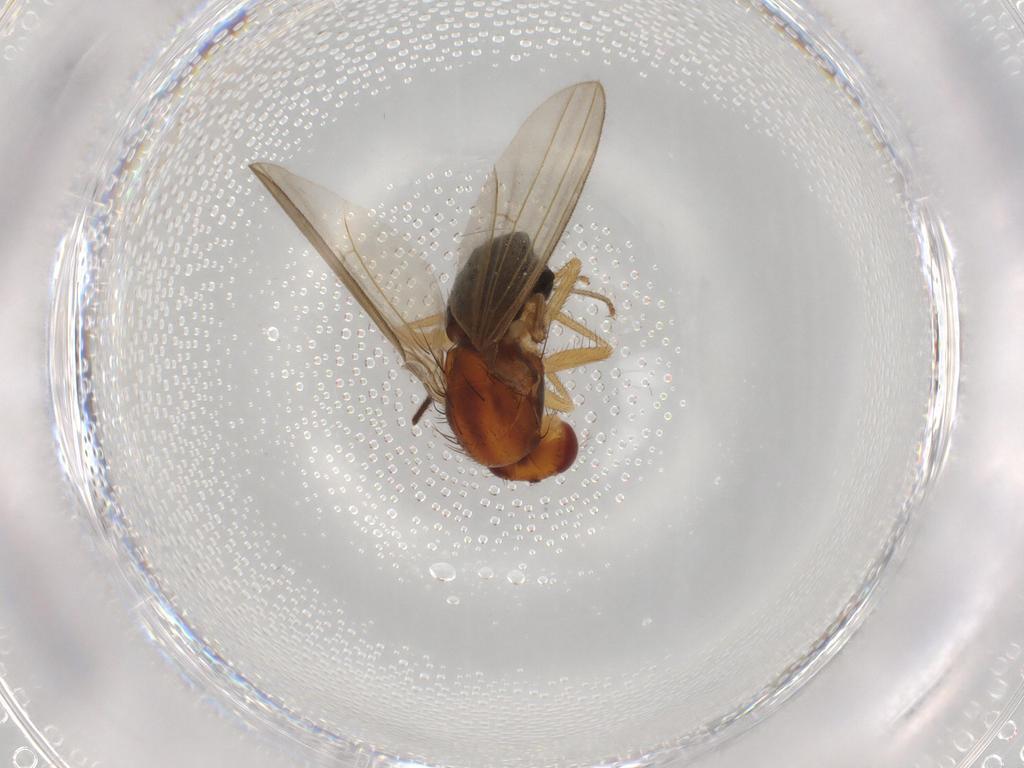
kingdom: Animalia
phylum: Arthropoda
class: Insecta
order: Diptera
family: Drosophilidae
